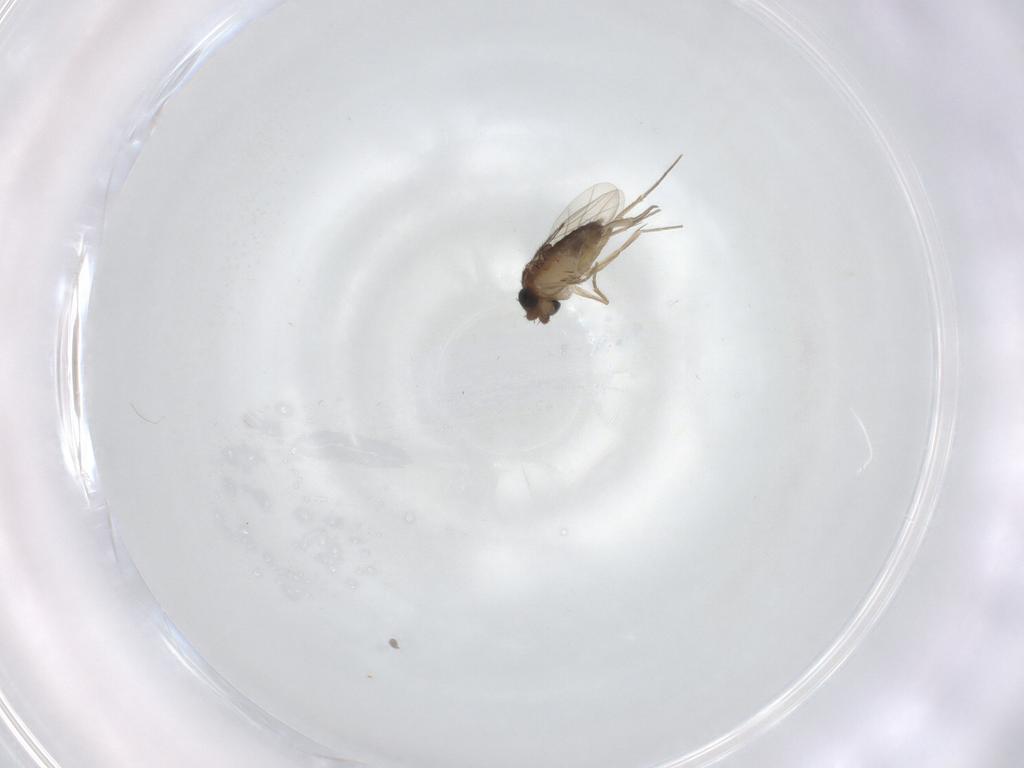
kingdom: Animalia
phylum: Arthropoda
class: Insecta
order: Diptera
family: Phoridae
